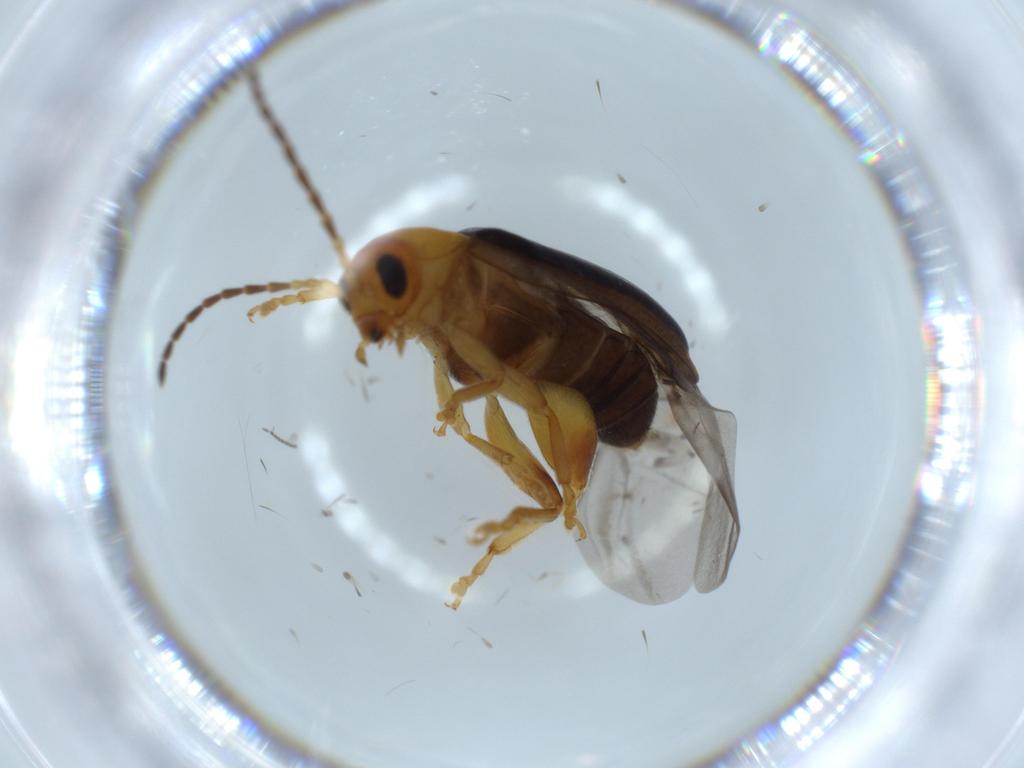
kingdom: Animalia
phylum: Arthropoda
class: Insecta
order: Coleoptera
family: Chrysomelidae
